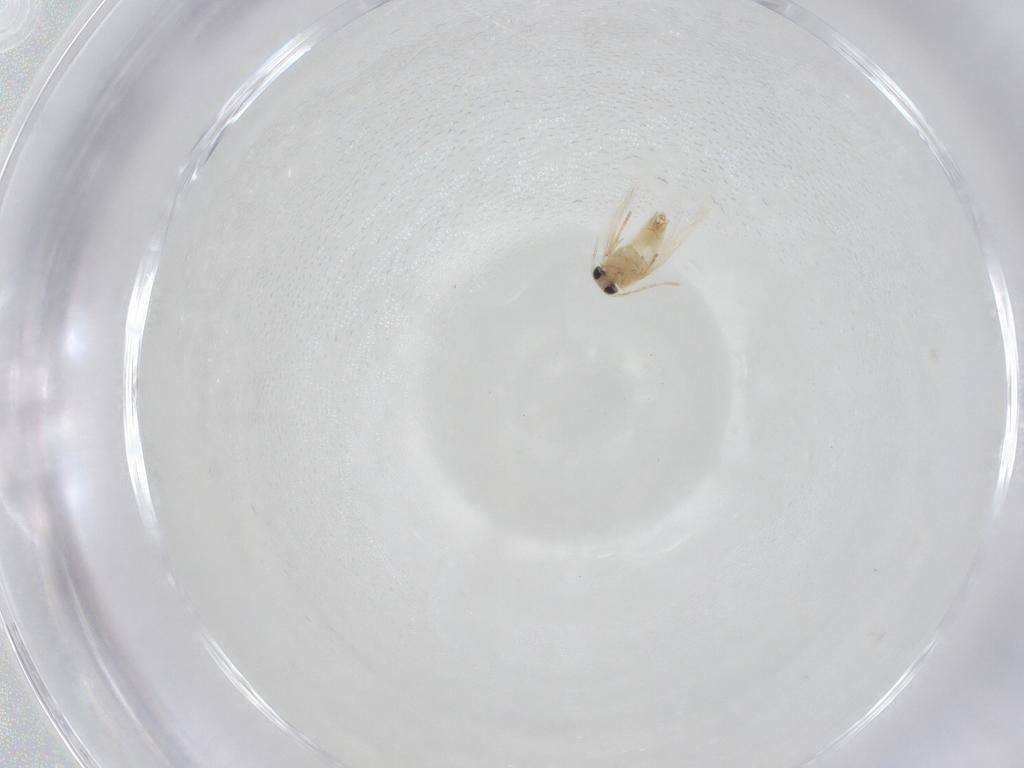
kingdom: Animalia
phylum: Arthropoda
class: Insecta
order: Lepidoptera
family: Crambidae
